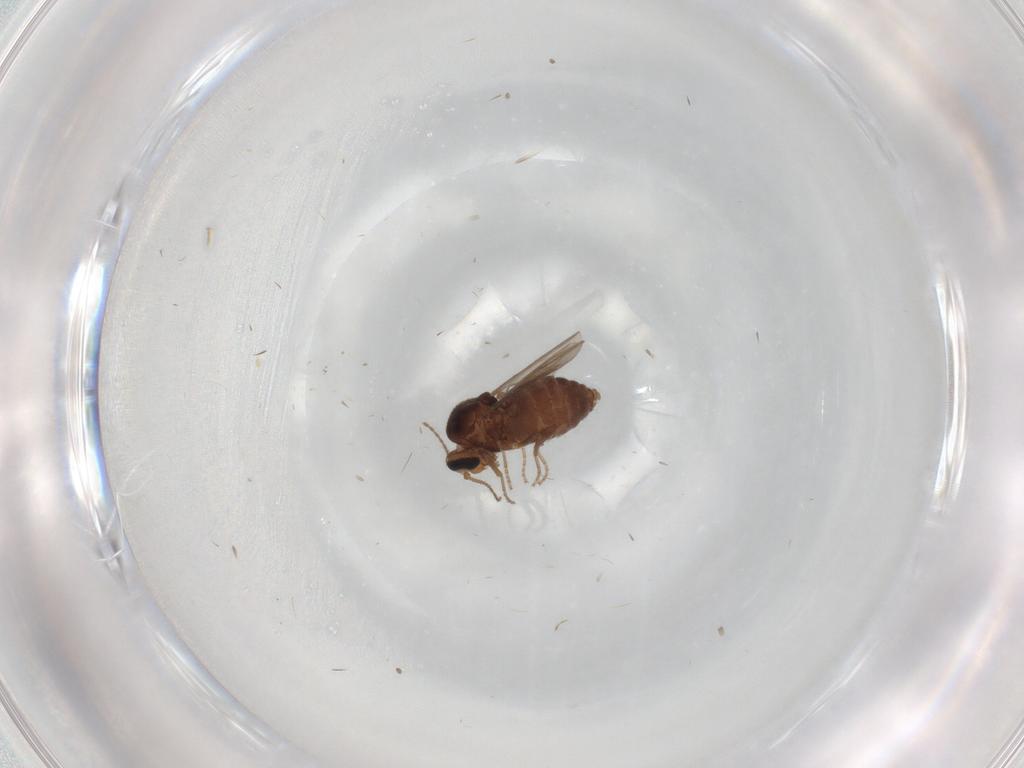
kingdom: Animalia
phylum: Arthropoda
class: Insecta
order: Diptera
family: Ceratopogonidae
